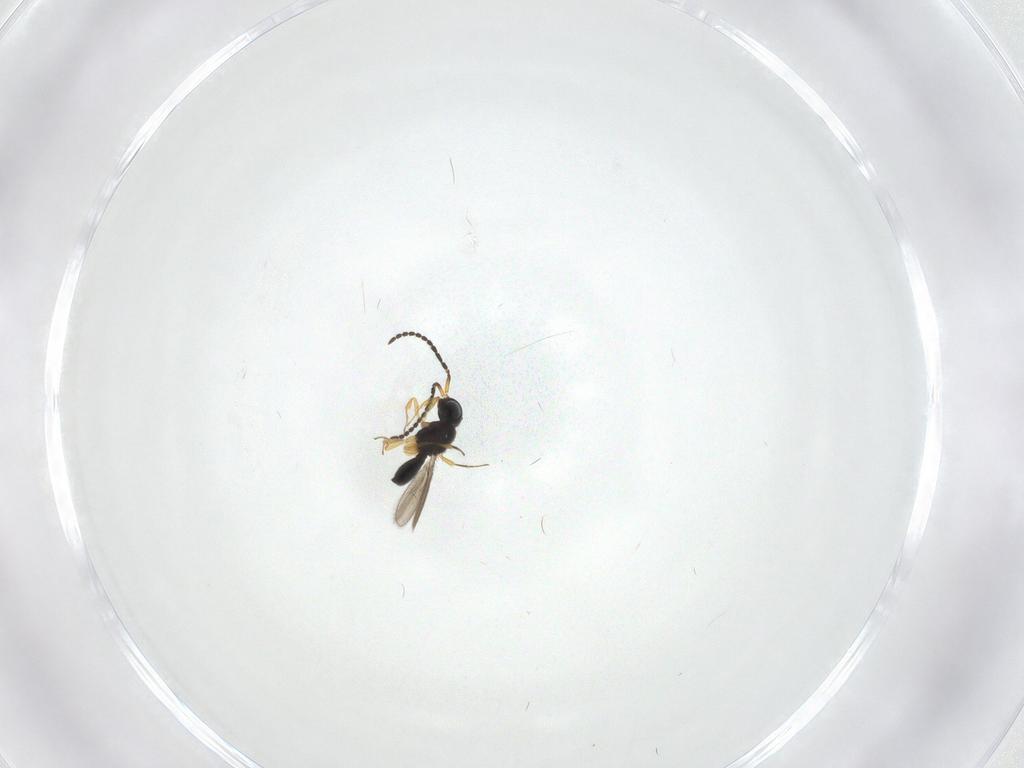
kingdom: Animalia
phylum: Arthropoda
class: Insecta
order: Hymenoptera
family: Scelionidae
